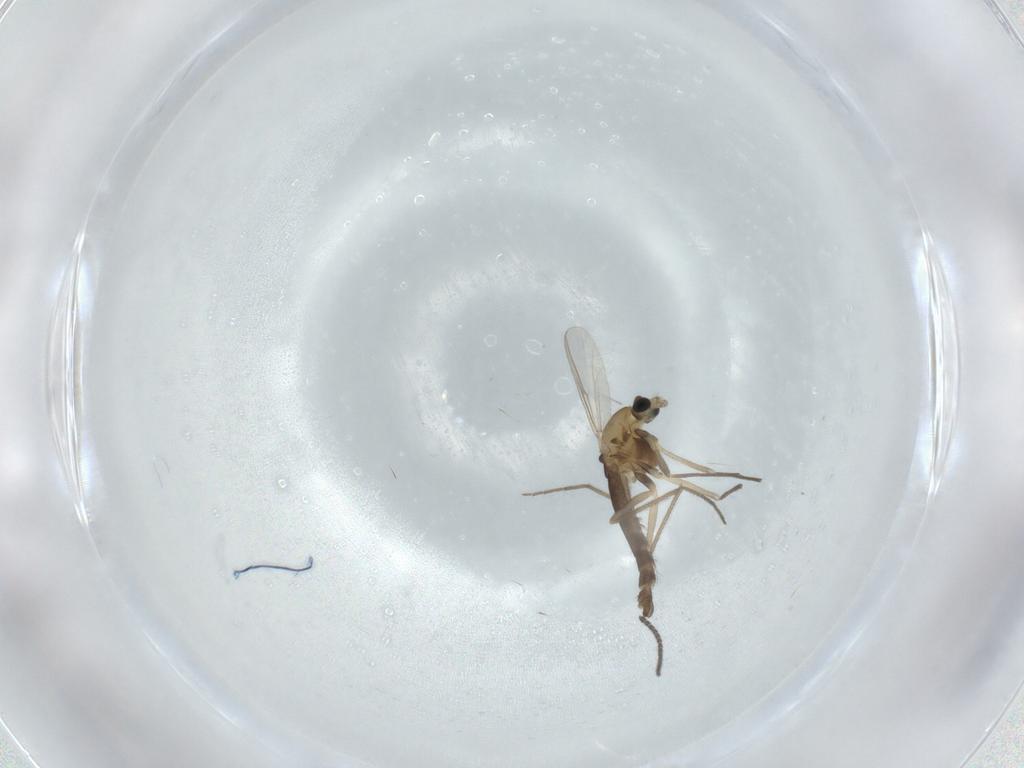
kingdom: Animalia
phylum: Arthropoda
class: Insecta
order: Diptera
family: Chironomidae
